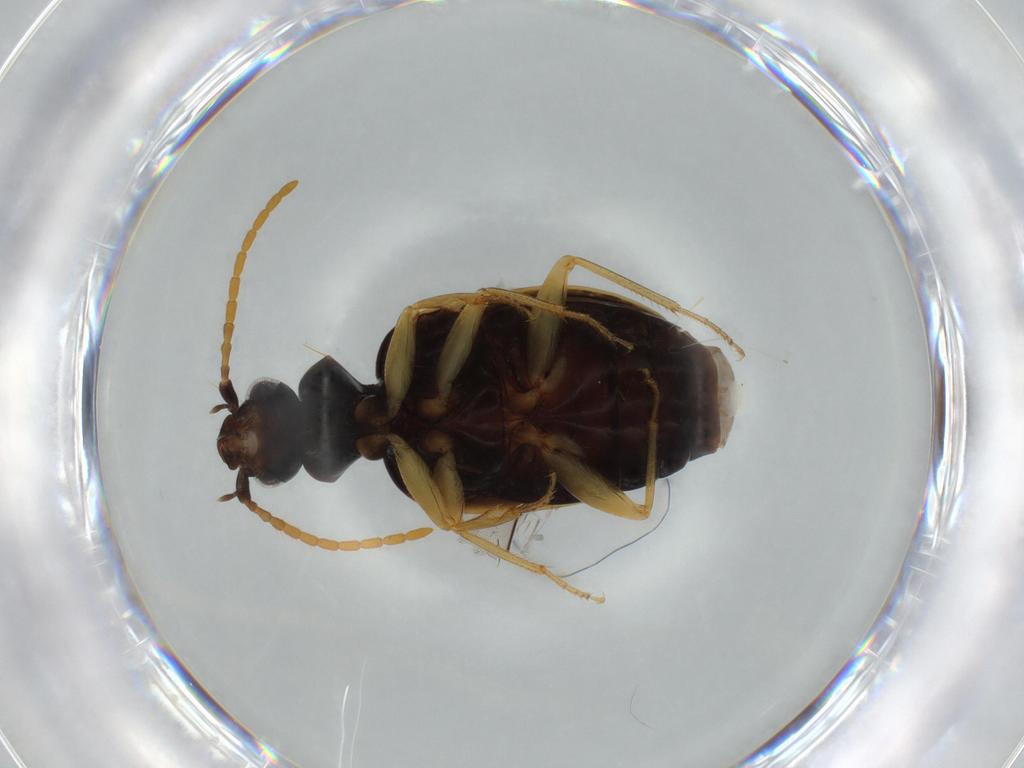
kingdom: Animalia
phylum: Arthropoda
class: Insecta
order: Coleoptera
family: Carabidae
